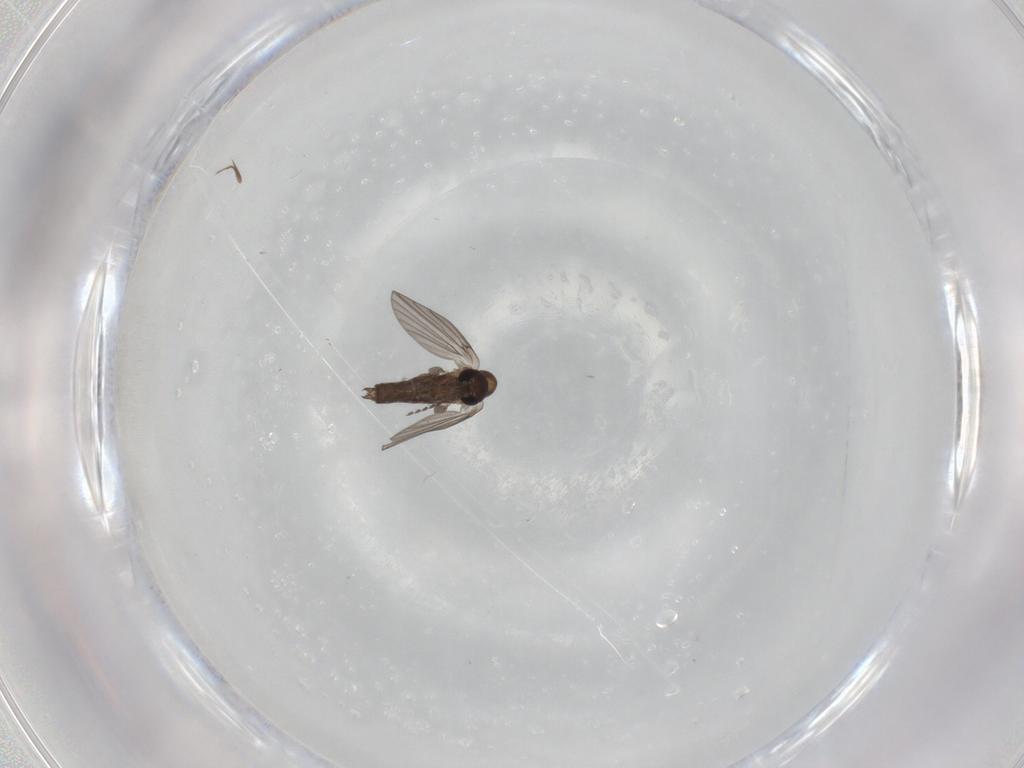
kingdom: Animalia
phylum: Arthropoda
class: Insecta
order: Diptera
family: Ceratopogonidae
